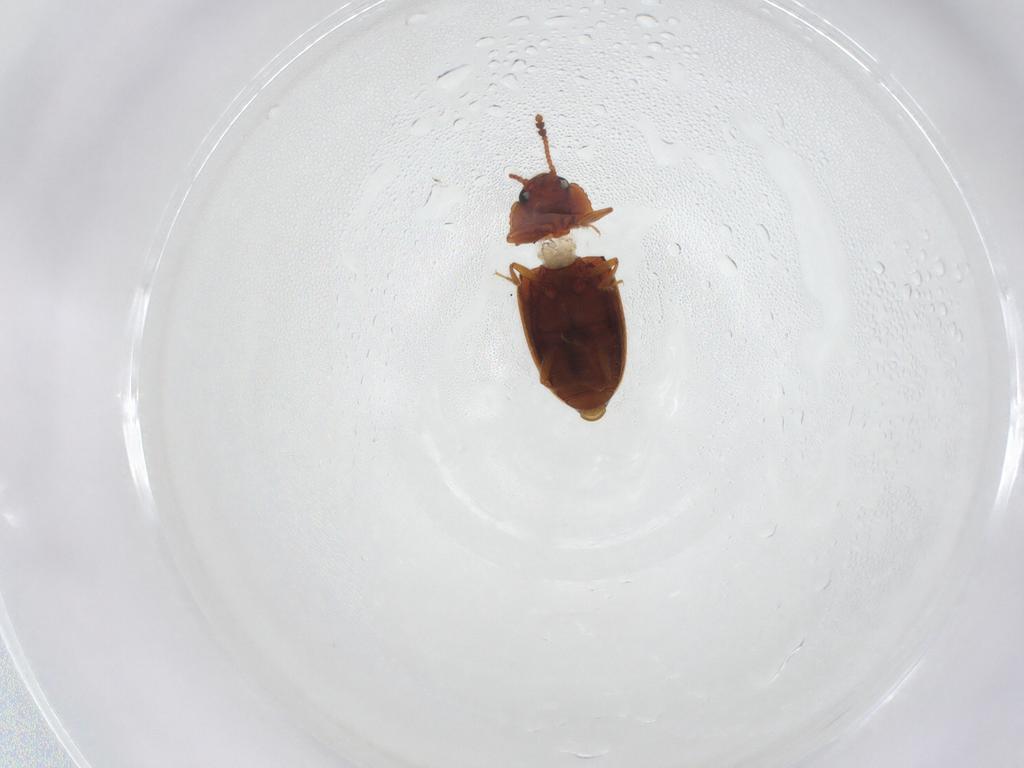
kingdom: Animalia
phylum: Arthropoda
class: Insecta
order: Coleoptera
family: Erotylidae
